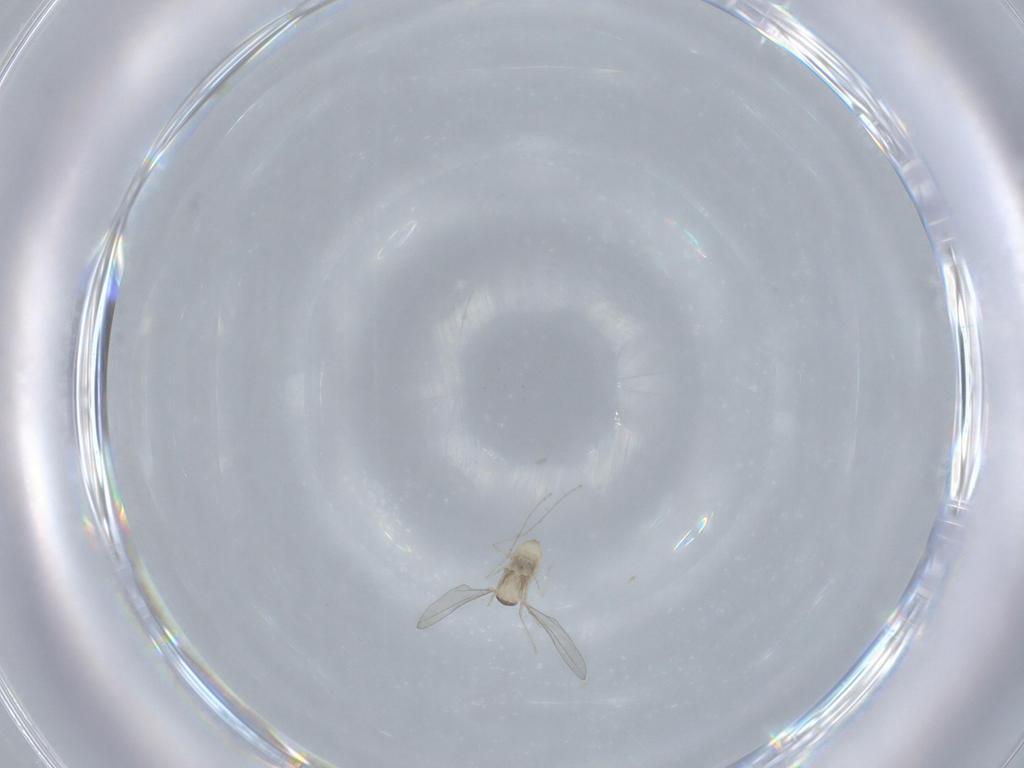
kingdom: Animalia
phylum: Arthropoda
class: Insecta
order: Diptera
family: Cecidomyiidae
